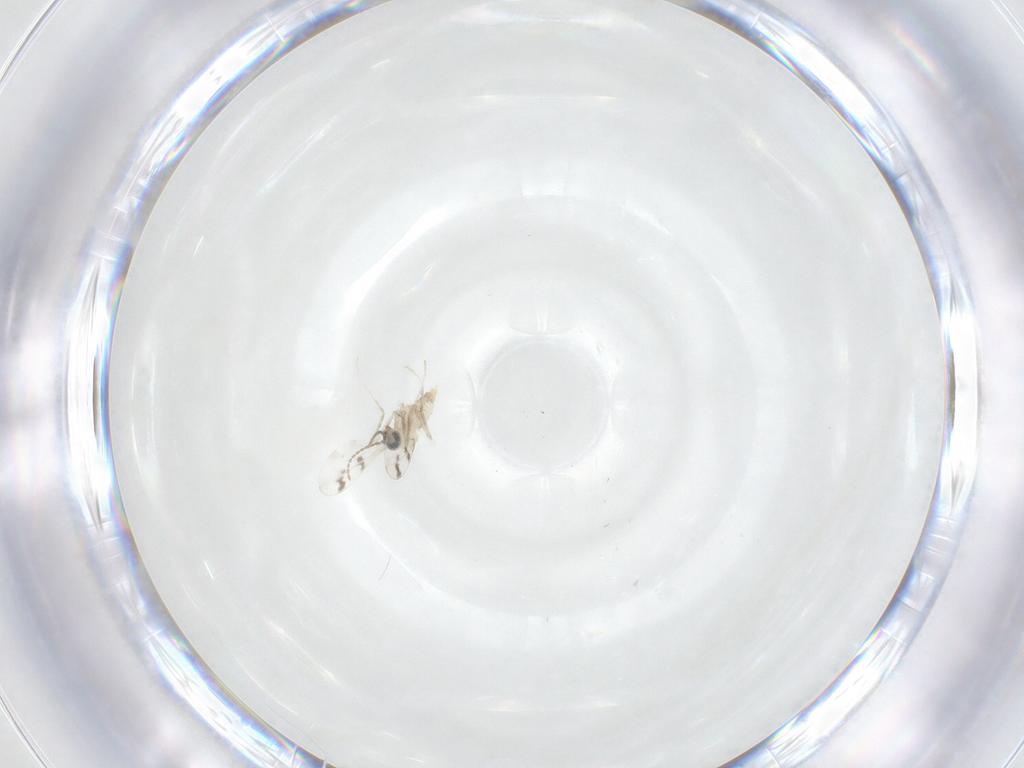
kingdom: Animalia
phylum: Arthropoda
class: Insecta
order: Diptera
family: Cecidomyiidae
